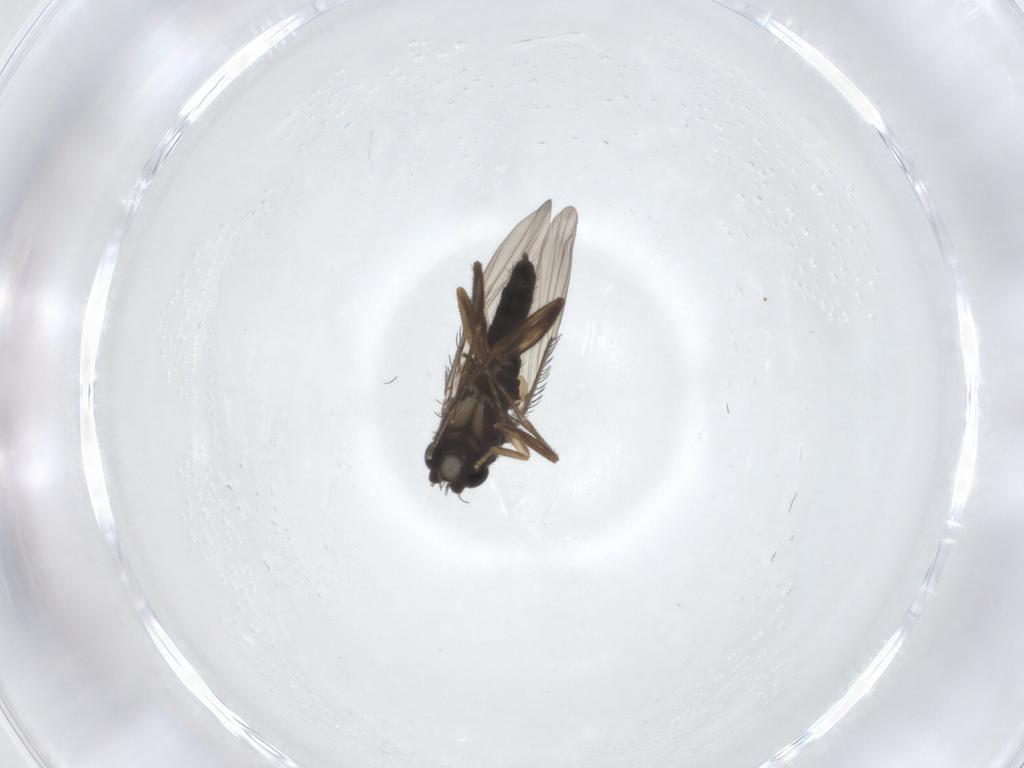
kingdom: Animalia
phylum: Arthropoda
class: Insecta
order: Diptera
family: Phoridae
